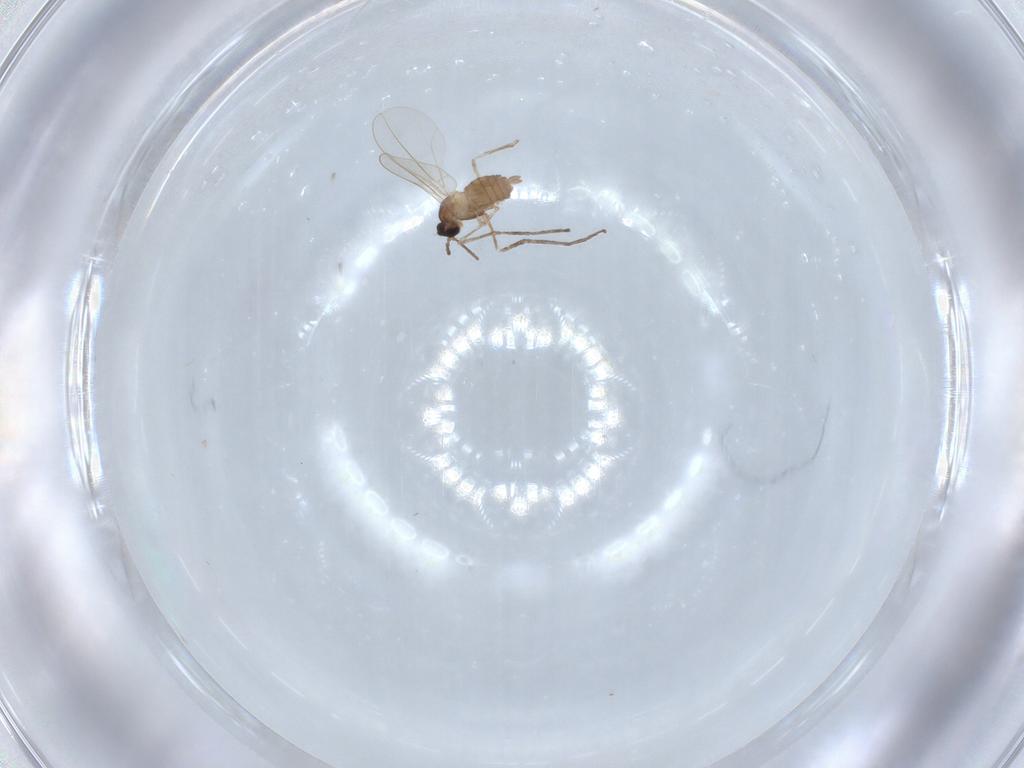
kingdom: Animalia
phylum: Arthropoda
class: Insecta
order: Diptera
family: Cecidomyiidae
